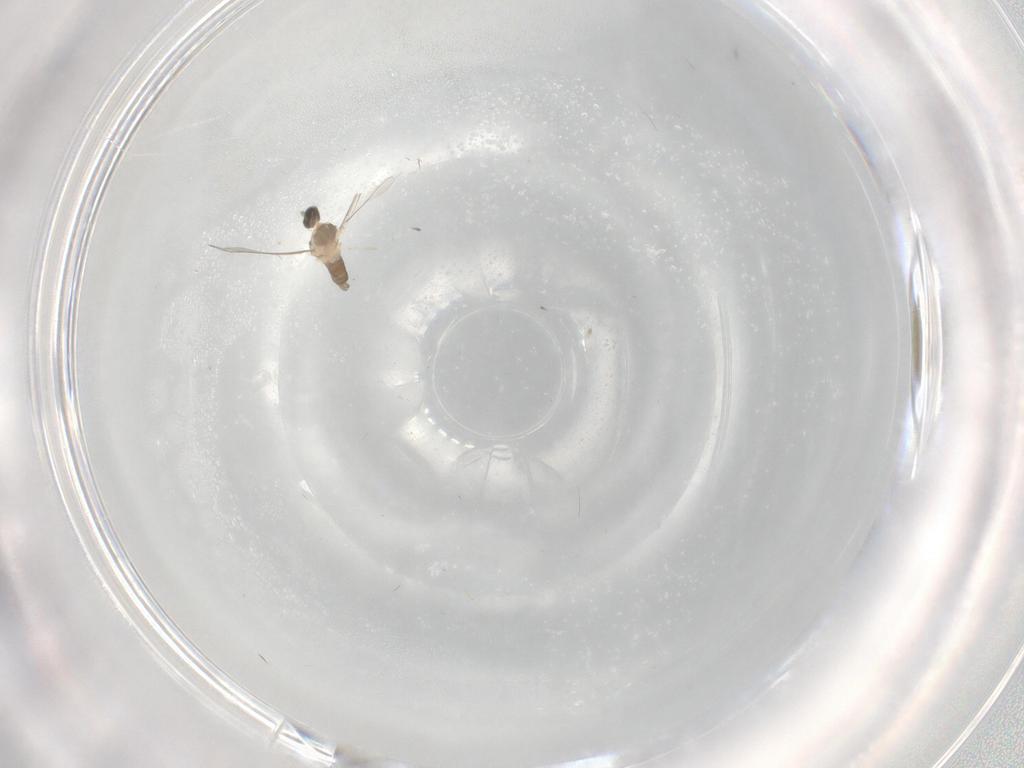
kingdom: Animalia
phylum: Arthropoda
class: Insecta
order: Diptera
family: Cecidomyiidae
